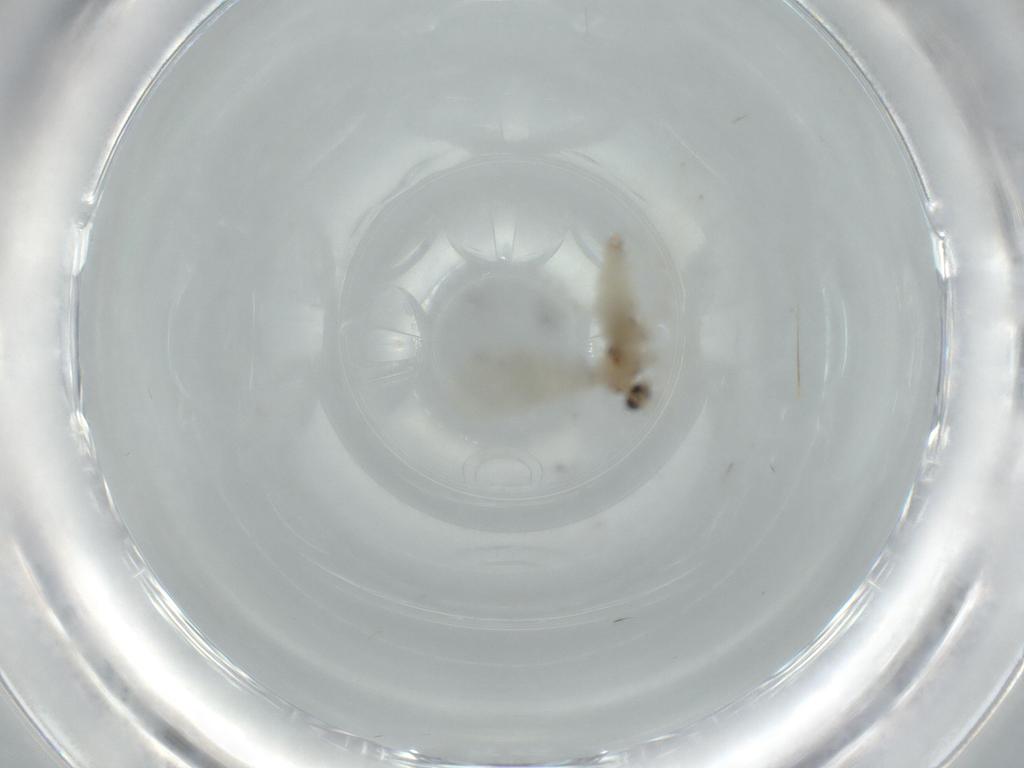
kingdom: Animalia
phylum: Arthropoda
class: Insecta
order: Diptera
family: Cecidomyiidae
